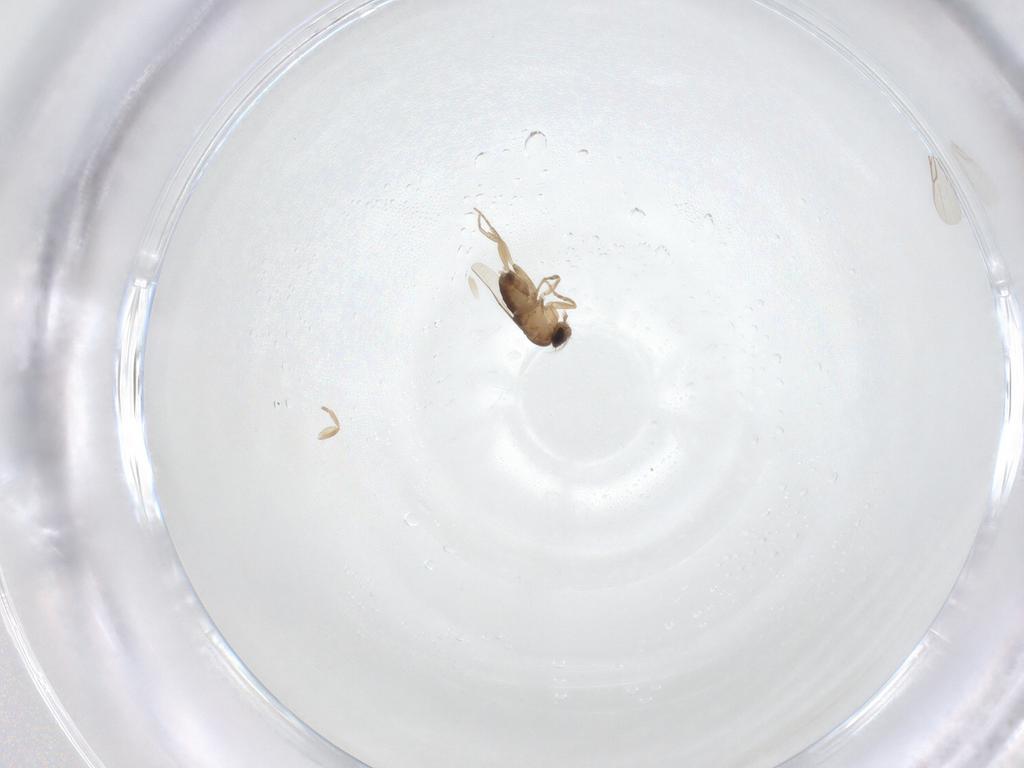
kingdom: Animalia
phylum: Arthropoda
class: Insecta
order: Diptera
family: Phoridae
